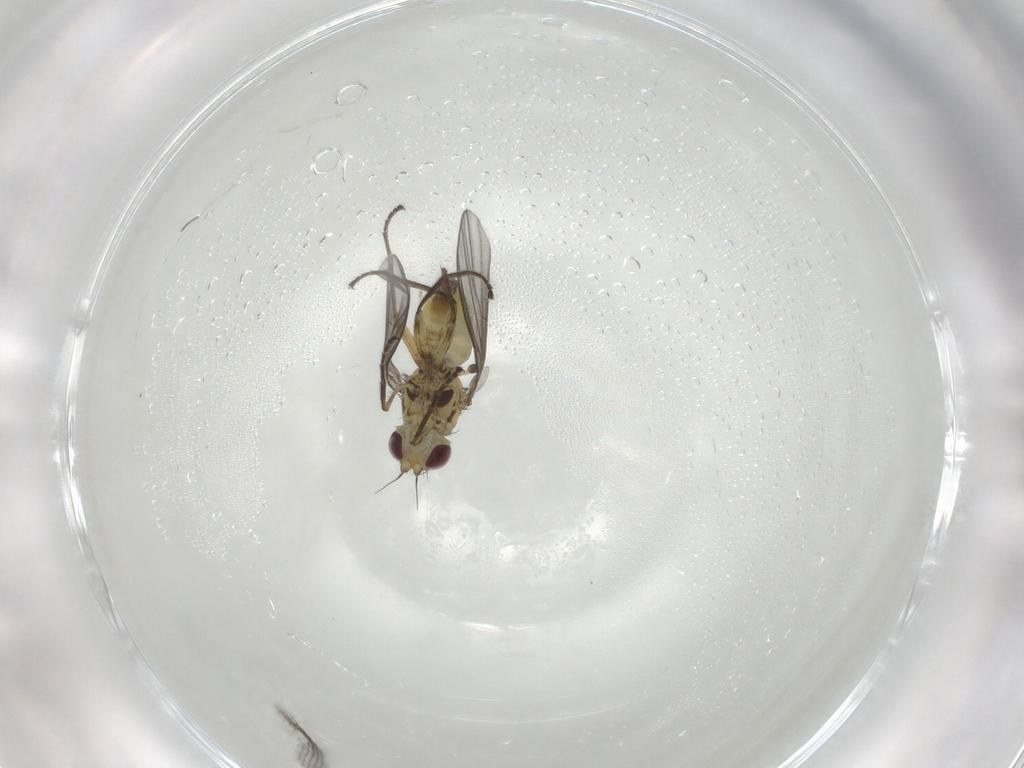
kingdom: Animalia
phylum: Arthropoda
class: Insecta
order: Diptera
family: Agromyzidae
